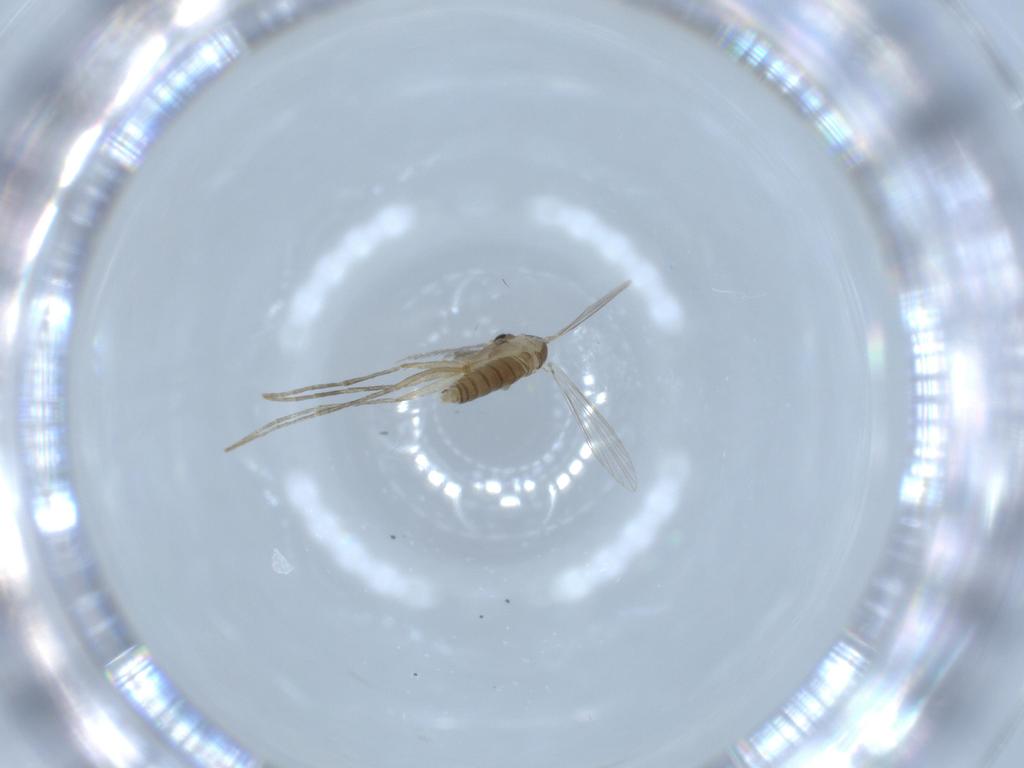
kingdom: Animalia
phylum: Arthropoda
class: Insecta
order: Diptera
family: Psychodidae
